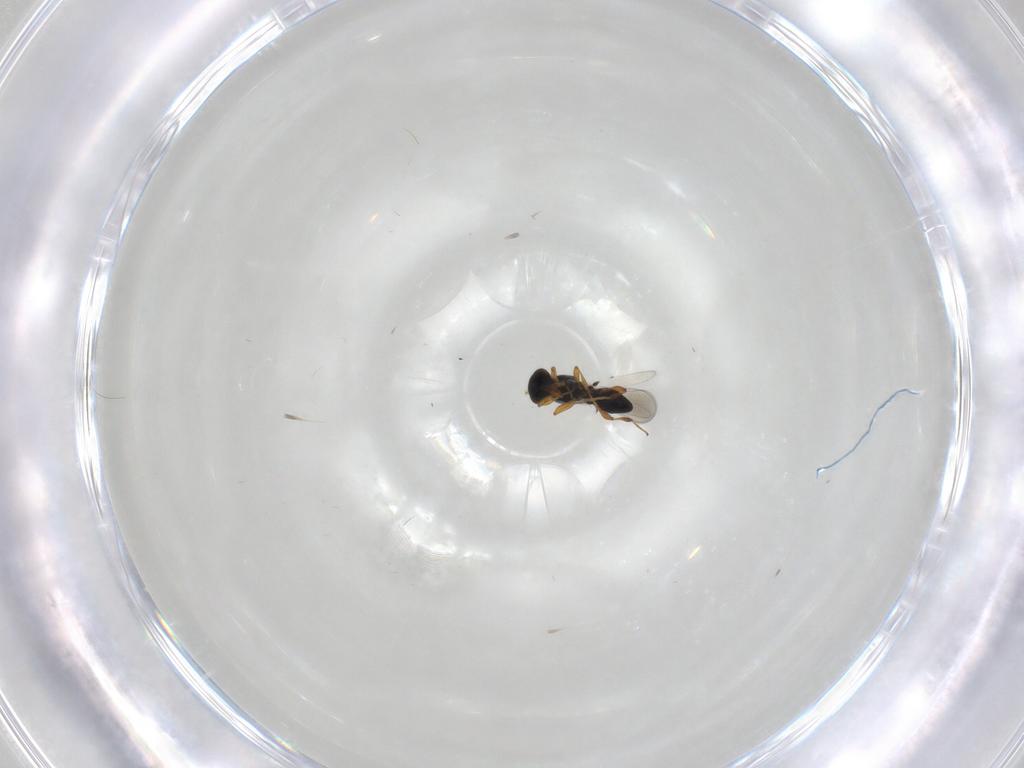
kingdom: Animalia
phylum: Arthropoda
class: Insecta
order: Hymenoptera
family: Eupelmidae
